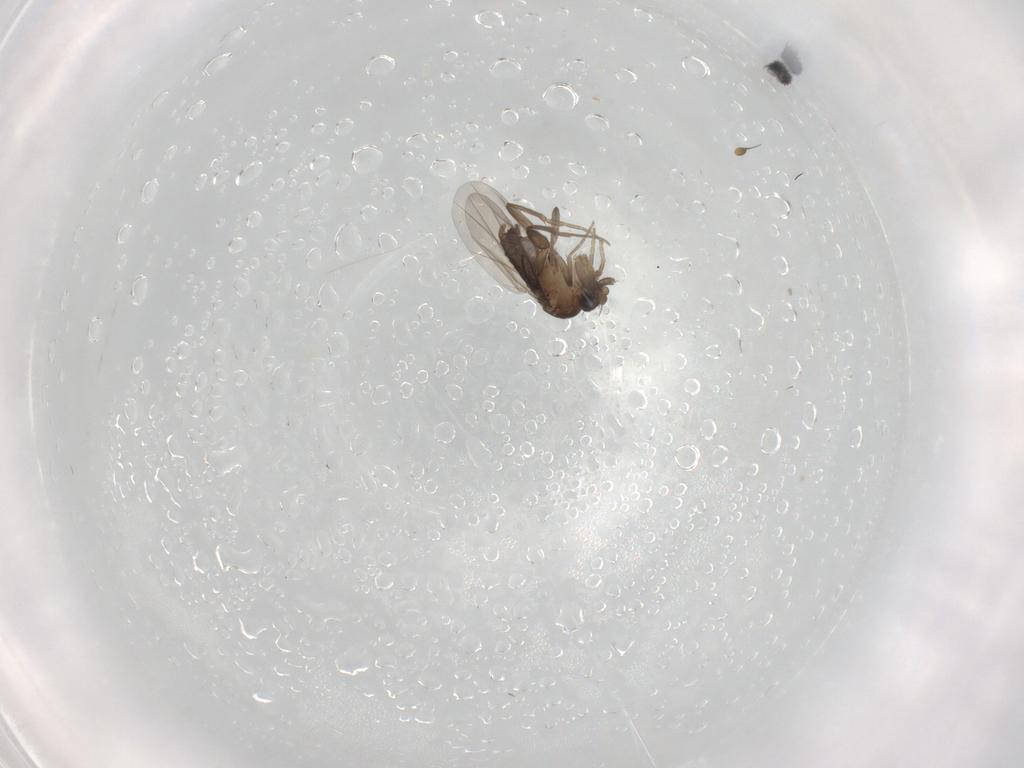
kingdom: Animalia
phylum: Arthropoda
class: Insecta
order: Diptera
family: Chloropidae
